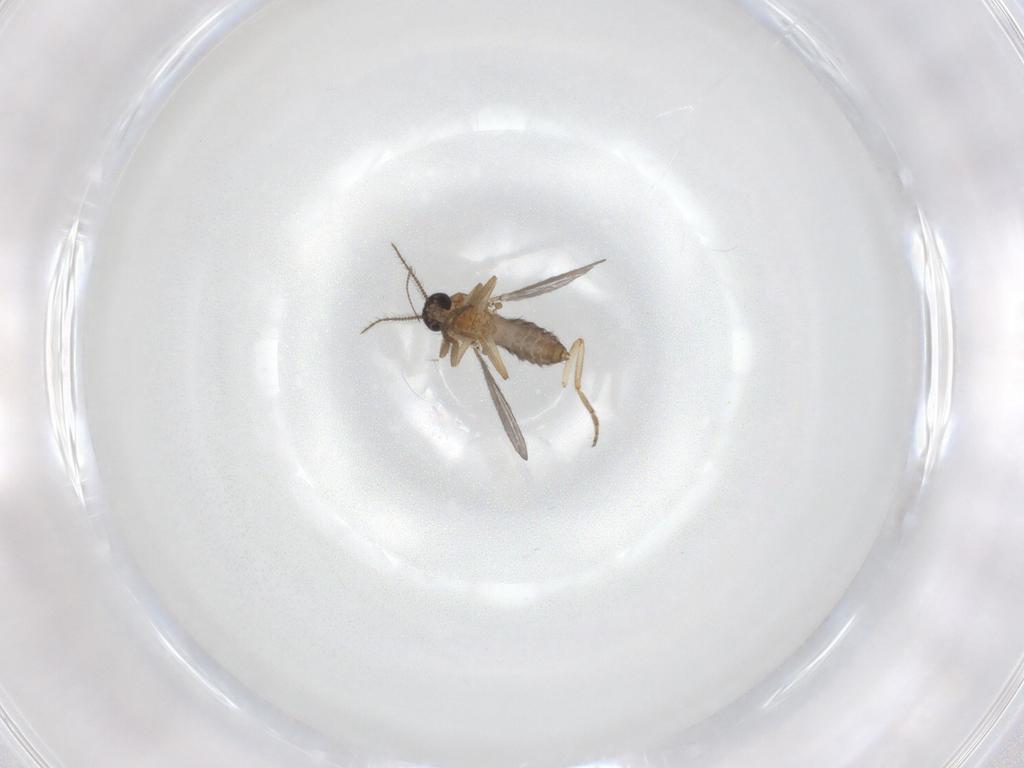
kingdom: Animalia
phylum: Arthropoda
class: Insecta
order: Diptera
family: Ceratopogonidae
